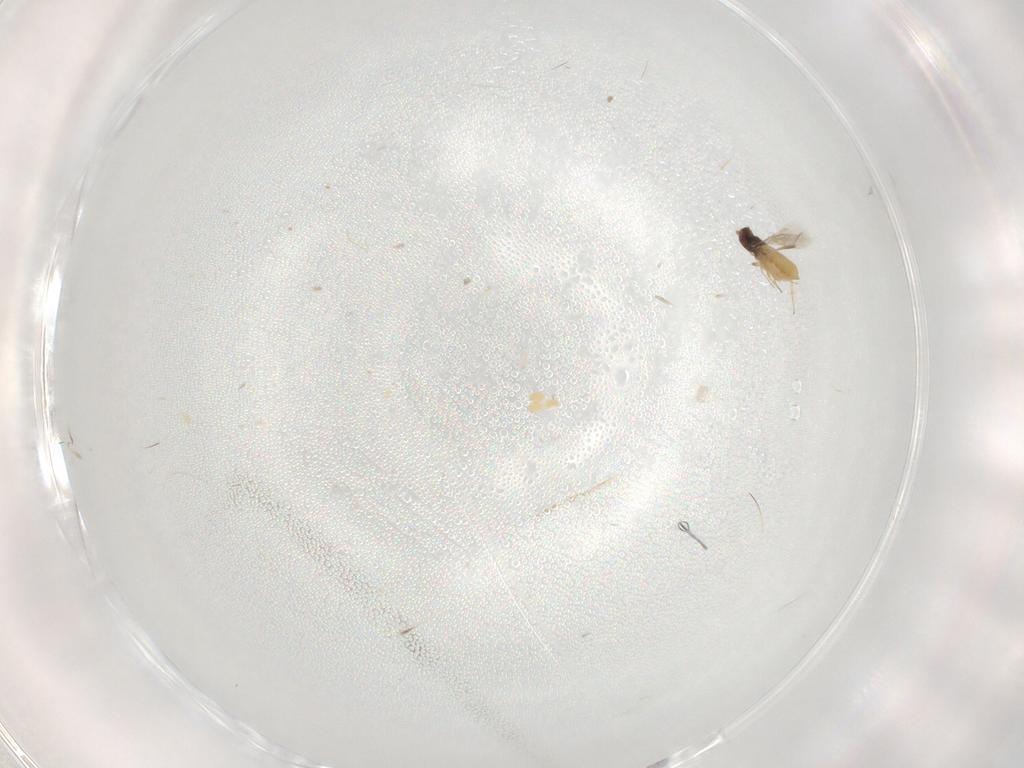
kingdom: Animalia
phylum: Arthropoda
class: Insecta
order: Hymenoptera
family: Trichogrammatidae
